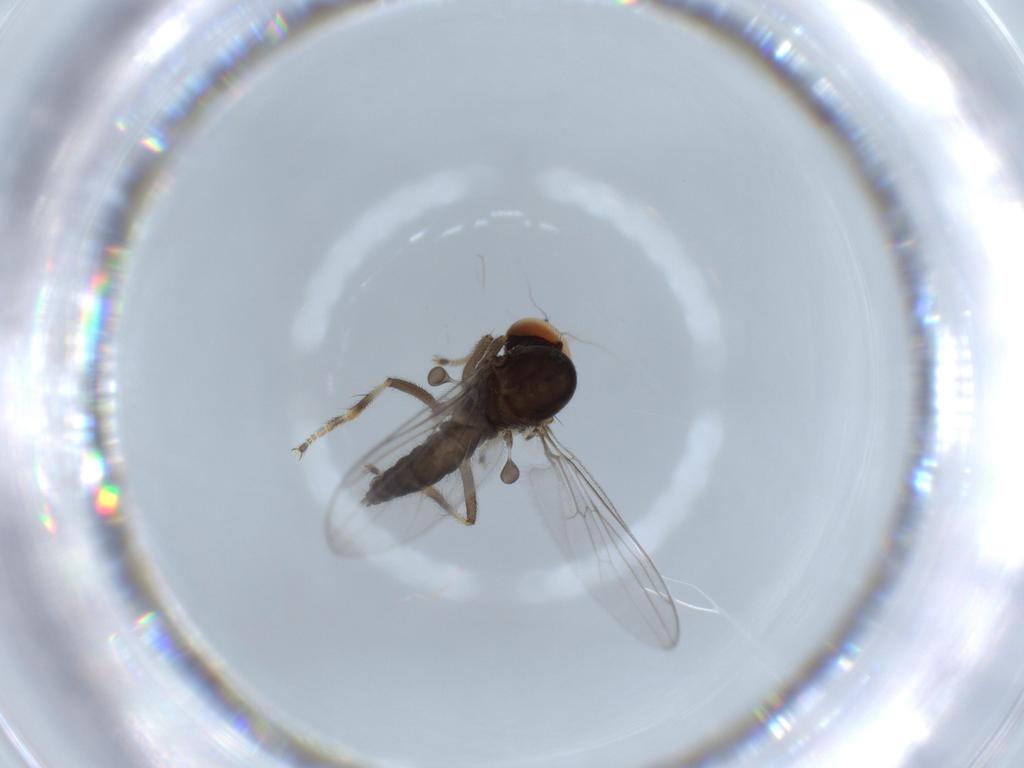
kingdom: Animalia
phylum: Arthropoda
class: Insecta
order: Diptera
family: Hybotidae
